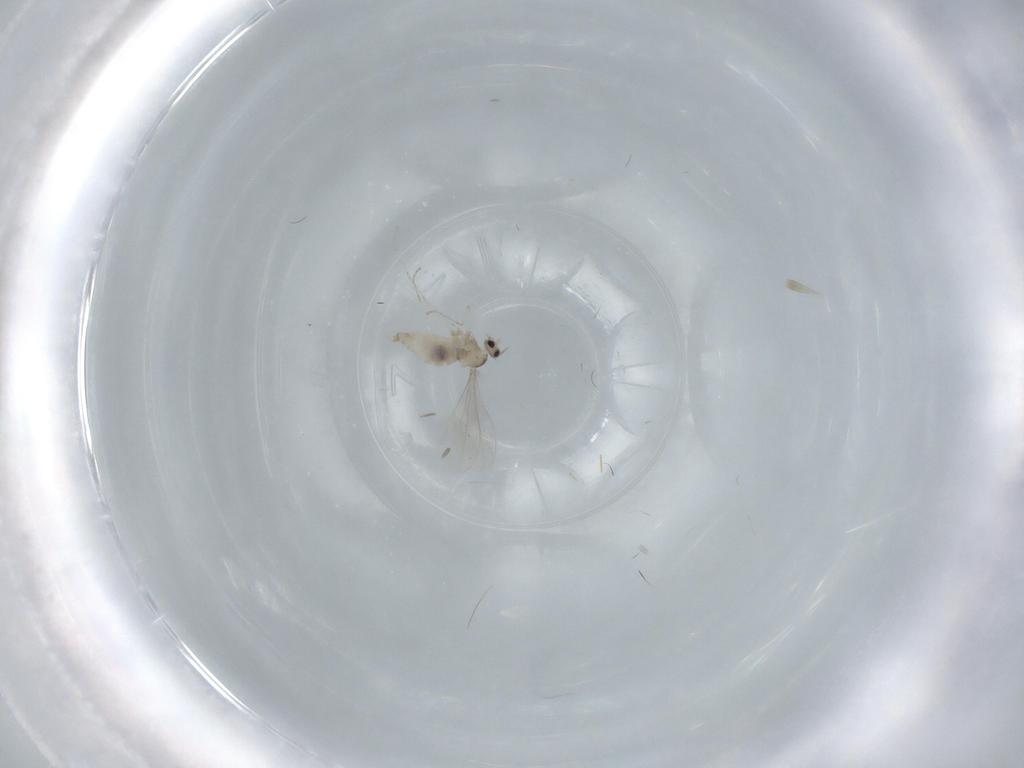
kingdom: Animalia
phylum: Arthropoda
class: Insecta
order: Diptera
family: Cecidomyiidae
